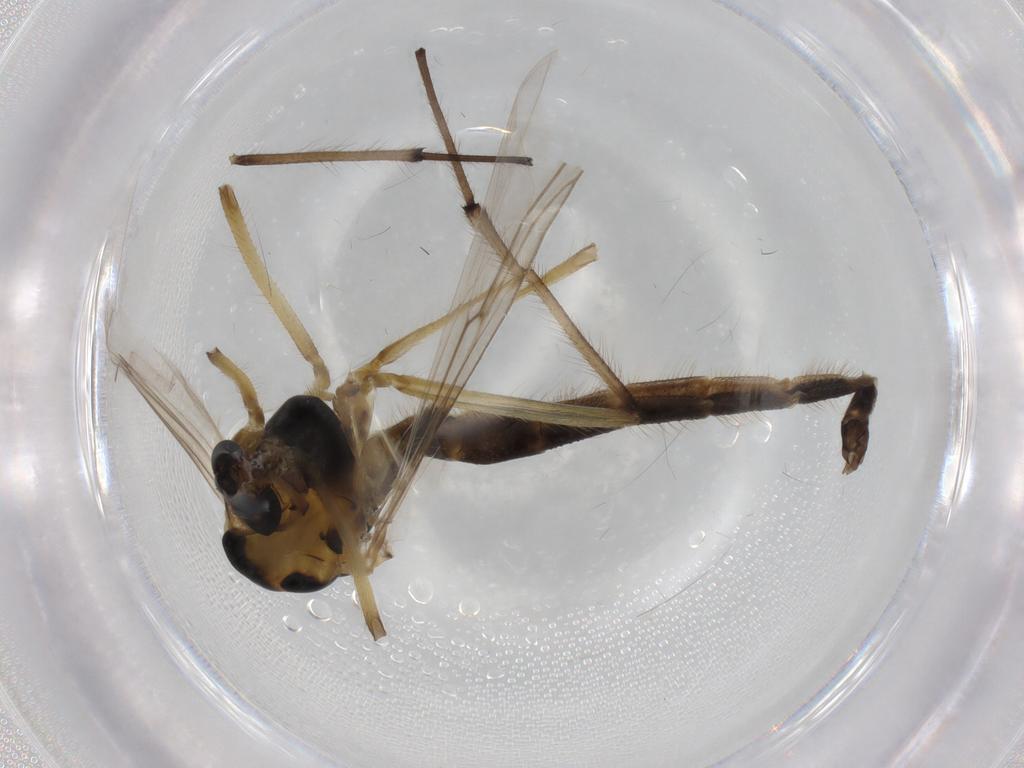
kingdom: Animalia
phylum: Arthropoda
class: Insecta
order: Diptera
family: Chironomidae
